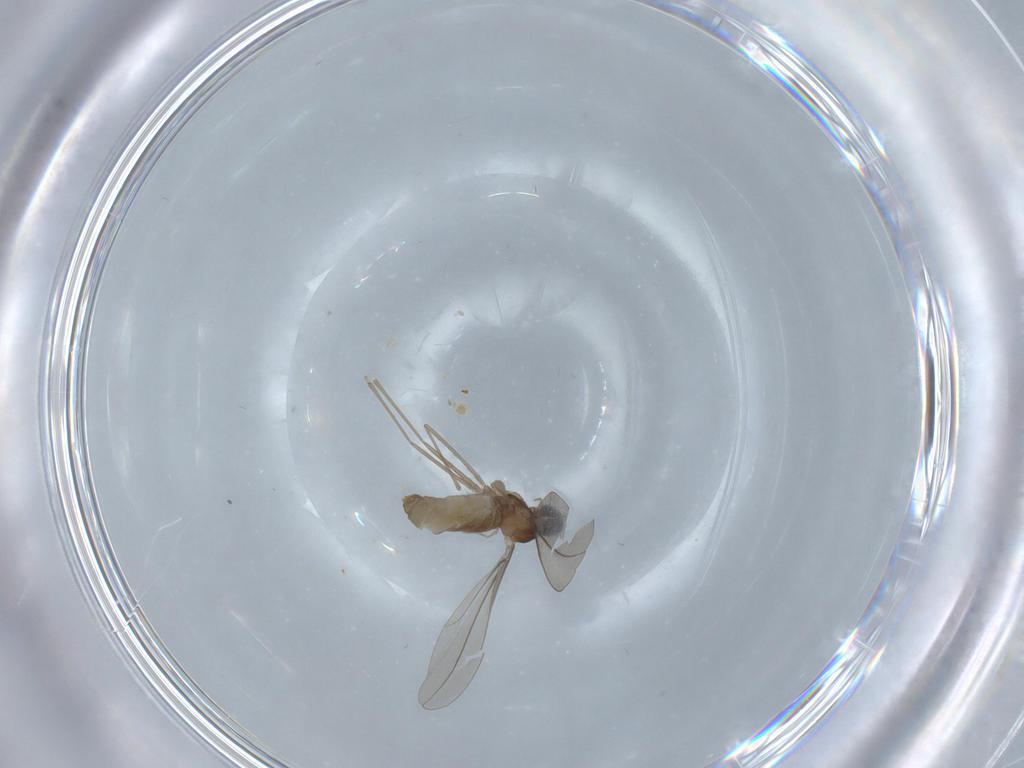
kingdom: Animalia
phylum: Arthropoda
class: Insecta
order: Diptera
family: Cecidomyiidae
